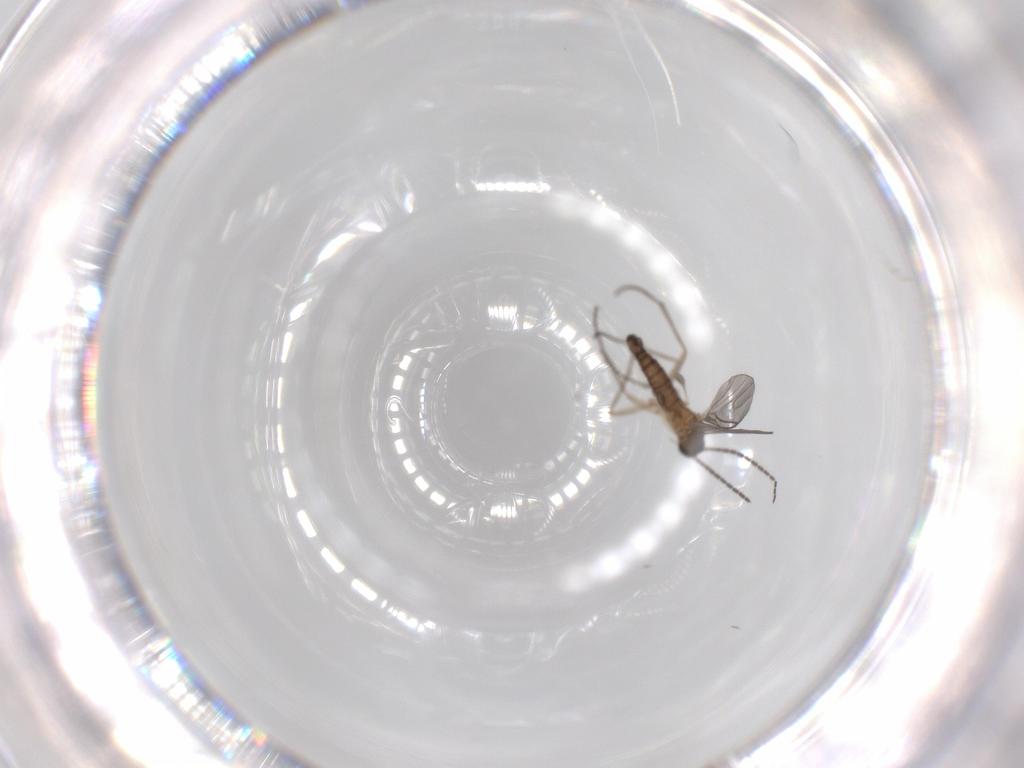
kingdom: Animalia
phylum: Arthropoda
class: Insecta
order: Diptera
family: Sciaridae
